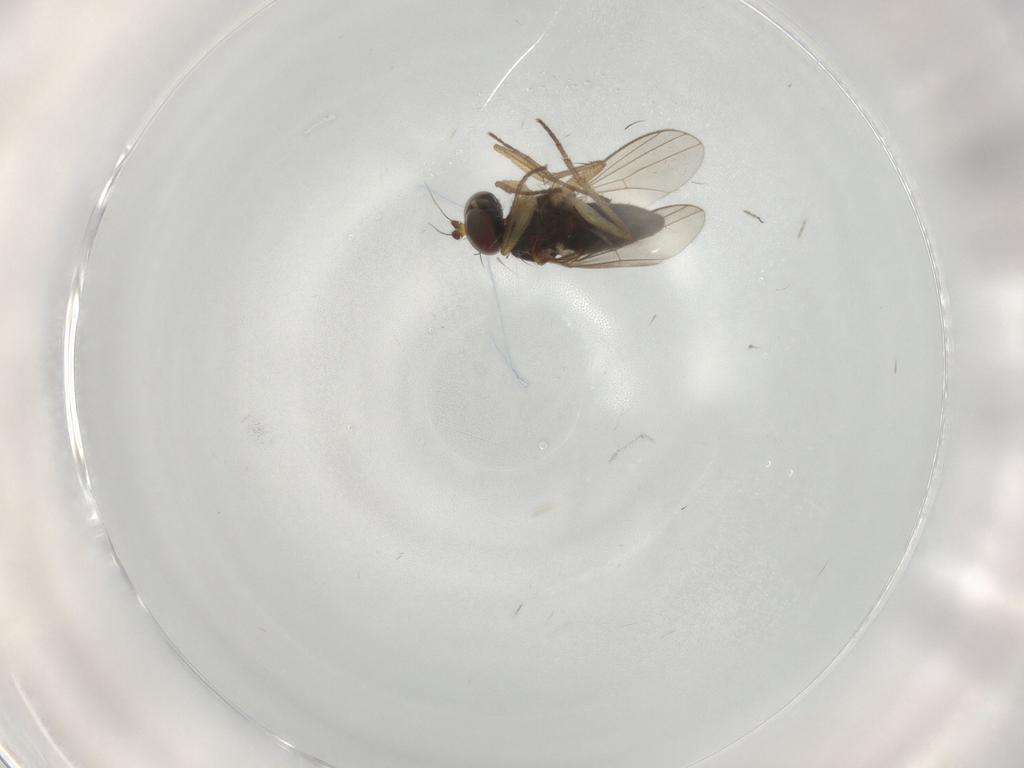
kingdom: Animalia
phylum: Arthropoda
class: Insecta
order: Diptera
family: Ceratopogonidae
